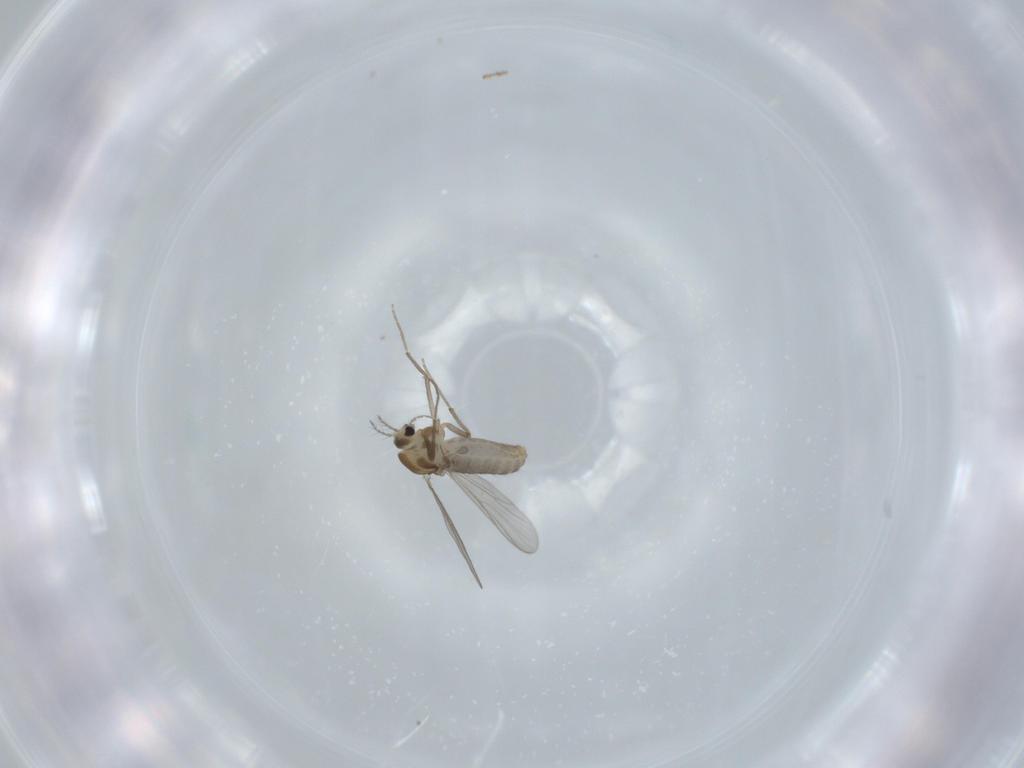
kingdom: Animalia
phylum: Arthropoda
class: Insecta
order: Diptera
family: Chironomidae
